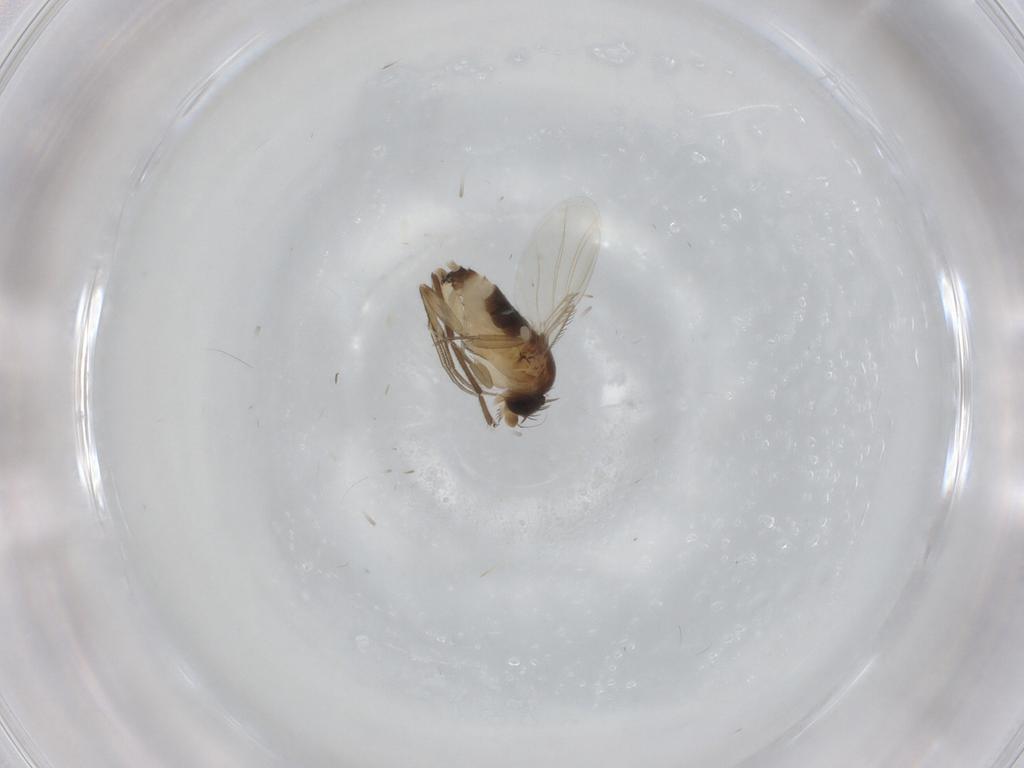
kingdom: Animalia
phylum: Arthropoda
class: Insecta
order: Diptera
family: Phoridae
